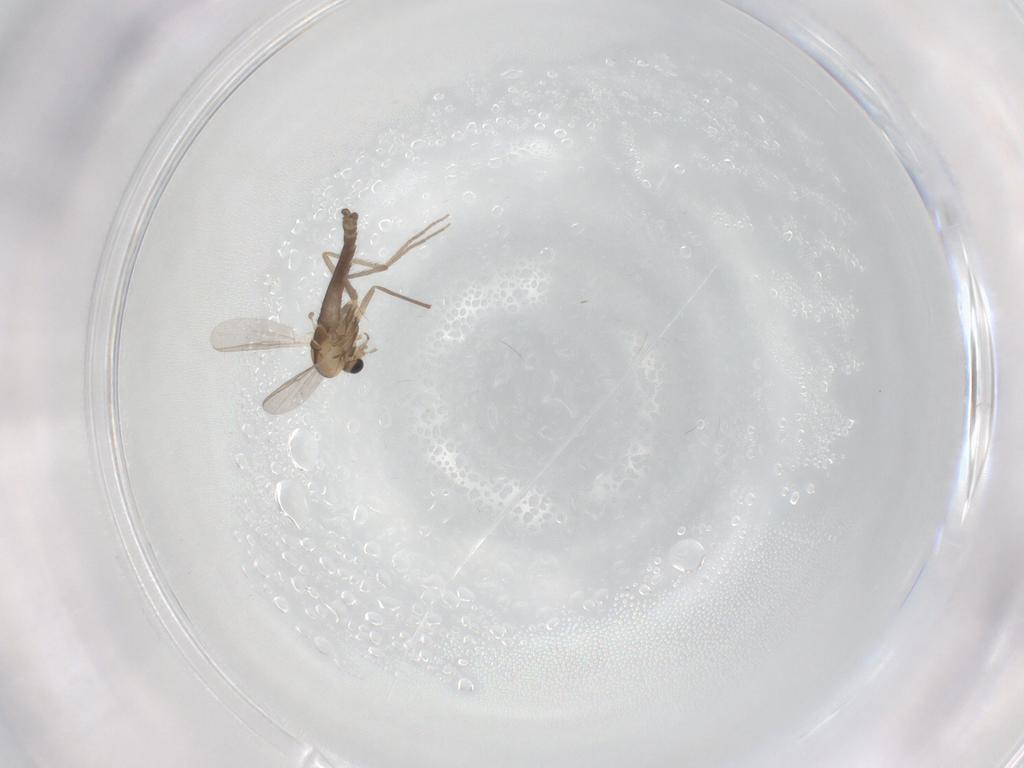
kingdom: Animalia
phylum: Arthropoda
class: Insecta
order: Diptera
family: Chironomidae
